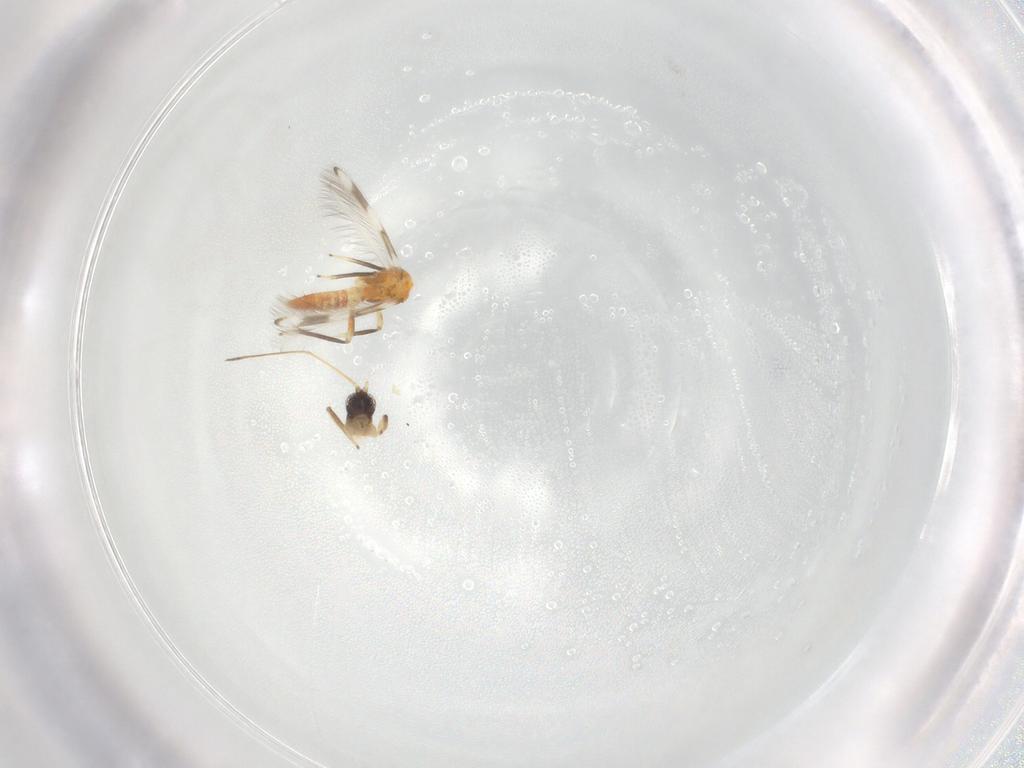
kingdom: Animalia
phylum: Arthropoda
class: Insecta
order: Thysanoptera
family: Aeolothripidae
